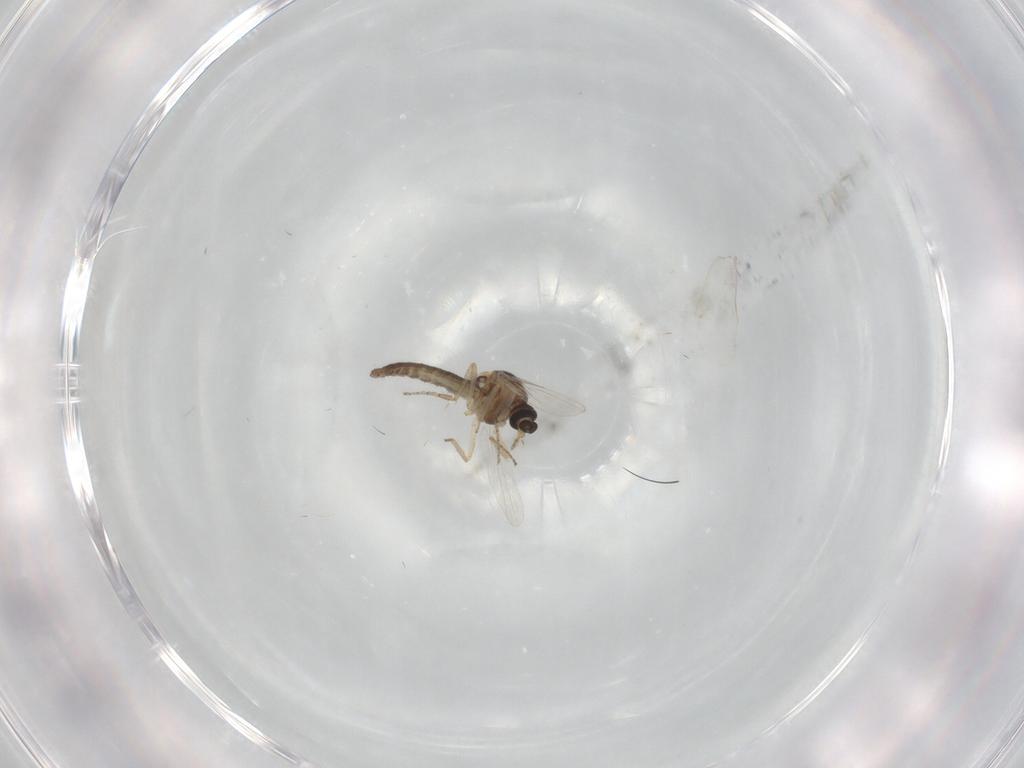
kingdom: Animalia
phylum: Arthropoda
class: Insecta
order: Diptera
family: Ceratopogonidae
